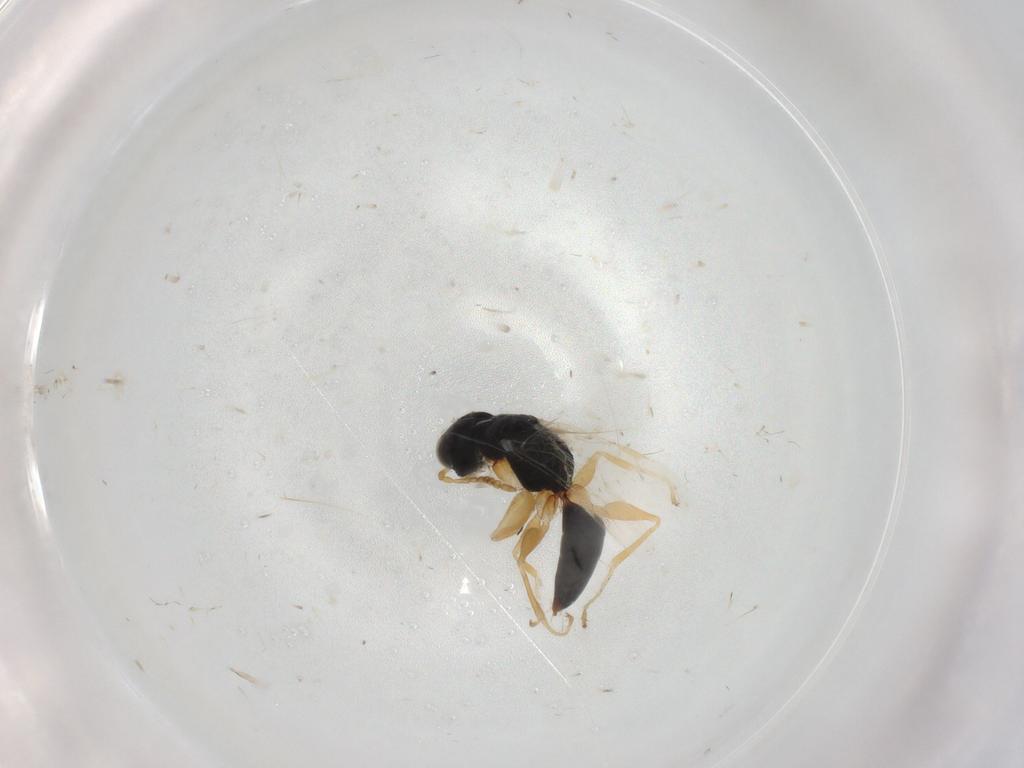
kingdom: Animalia
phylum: Arthropoda
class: Insecta
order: Hymenoptera
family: Dryinidae
